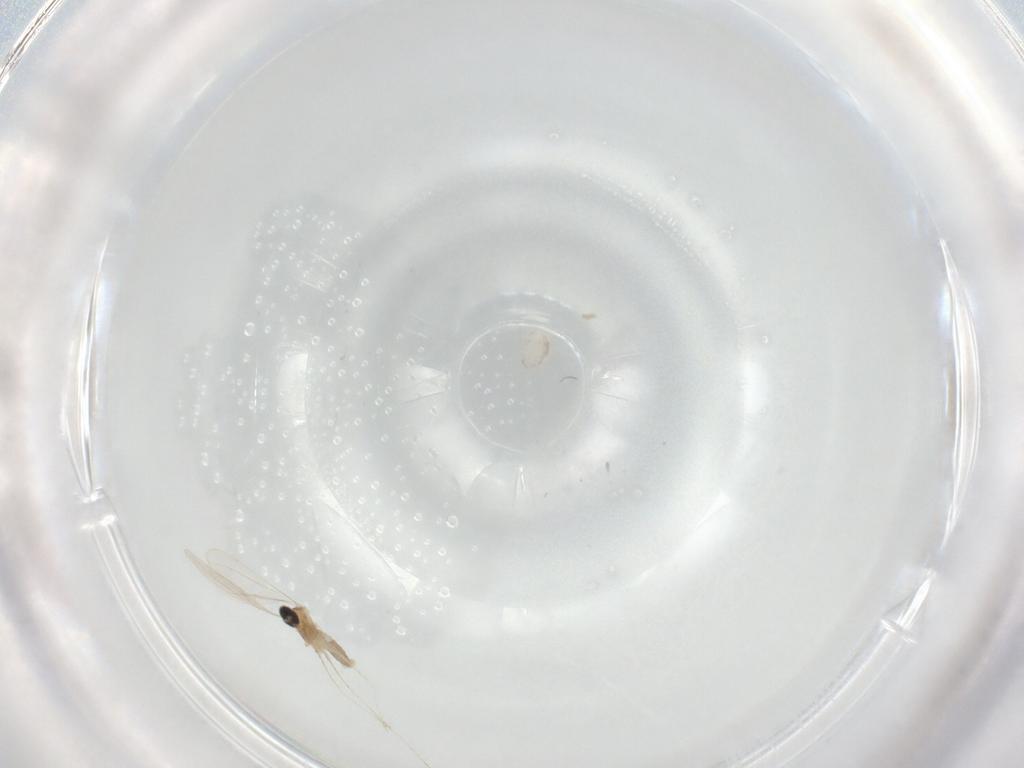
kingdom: Animalia
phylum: Arthropoda
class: Insecta
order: Diptera
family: Cecidomyiidae
